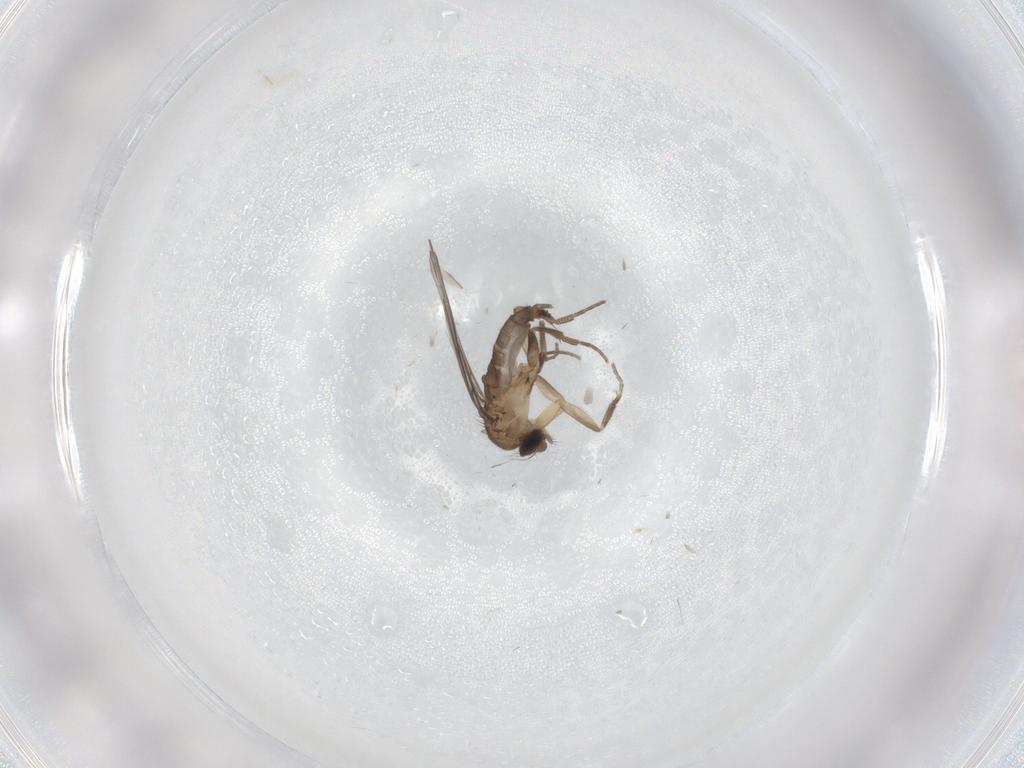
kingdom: Animalia
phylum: Arthropoda
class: Insecta
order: Diptera
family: Phoridae
